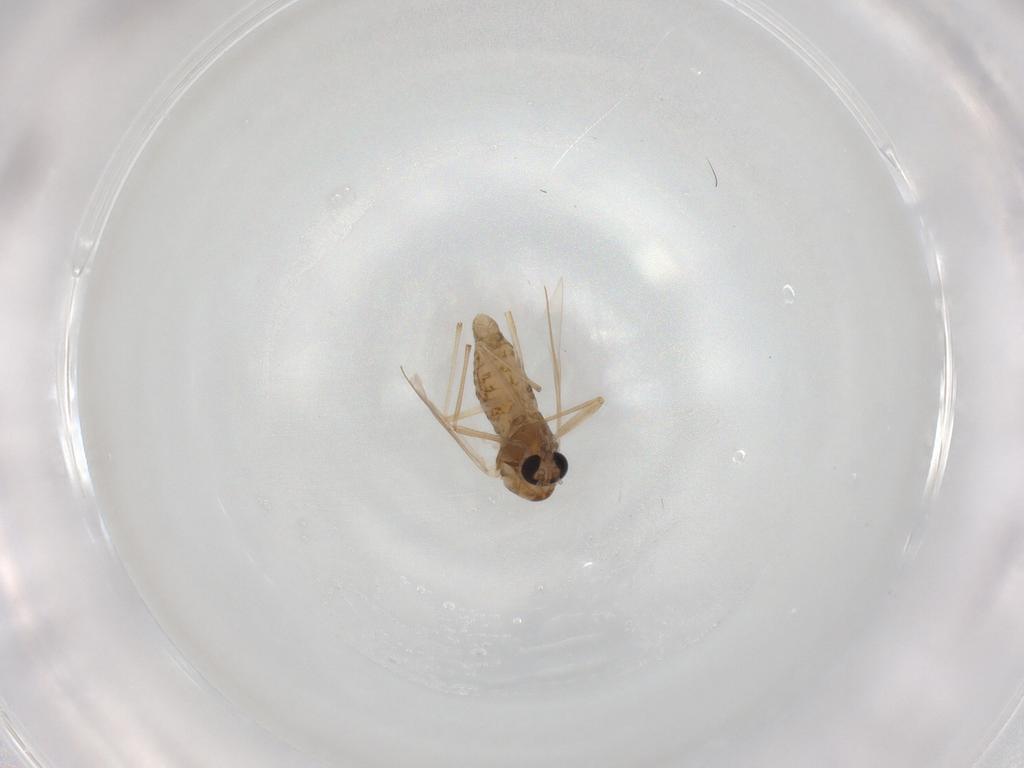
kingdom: Animalia
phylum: Arthropoda
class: Insecta
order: Diptera
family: Chironomidae
